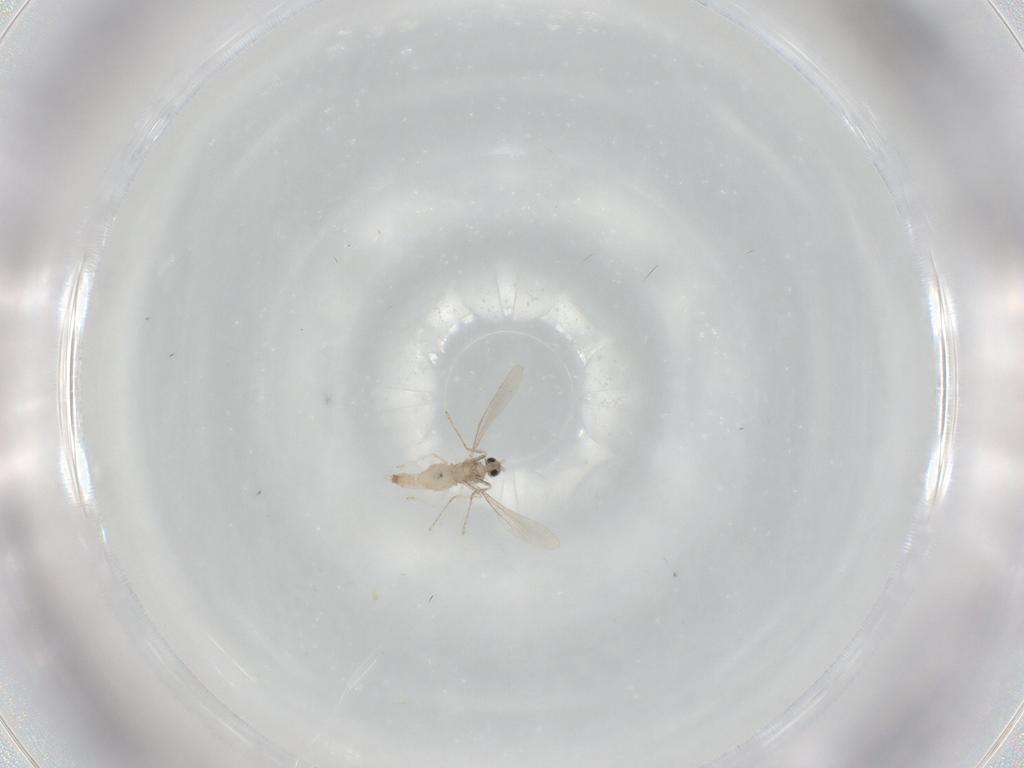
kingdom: Animalia
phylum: Arthropoda
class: Insecta
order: Diptera
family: Cecidomyiidae
